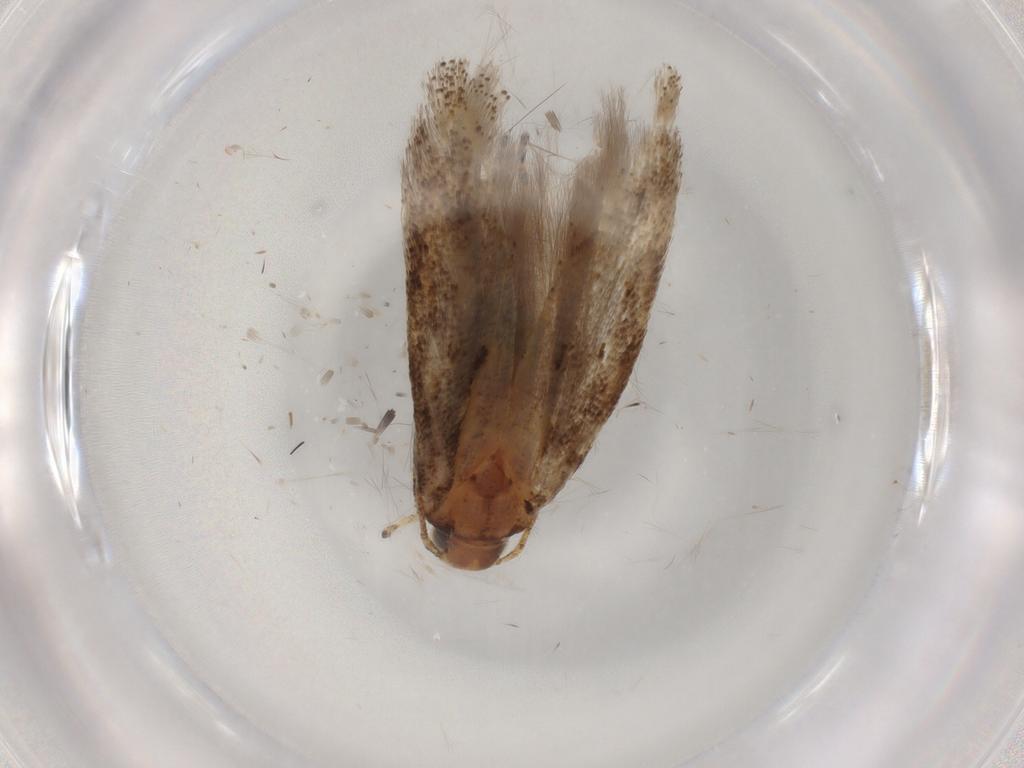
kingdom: Animalia
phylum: Arthropoda
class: Insecta
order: Lepidoptera
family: Gelechiidae
